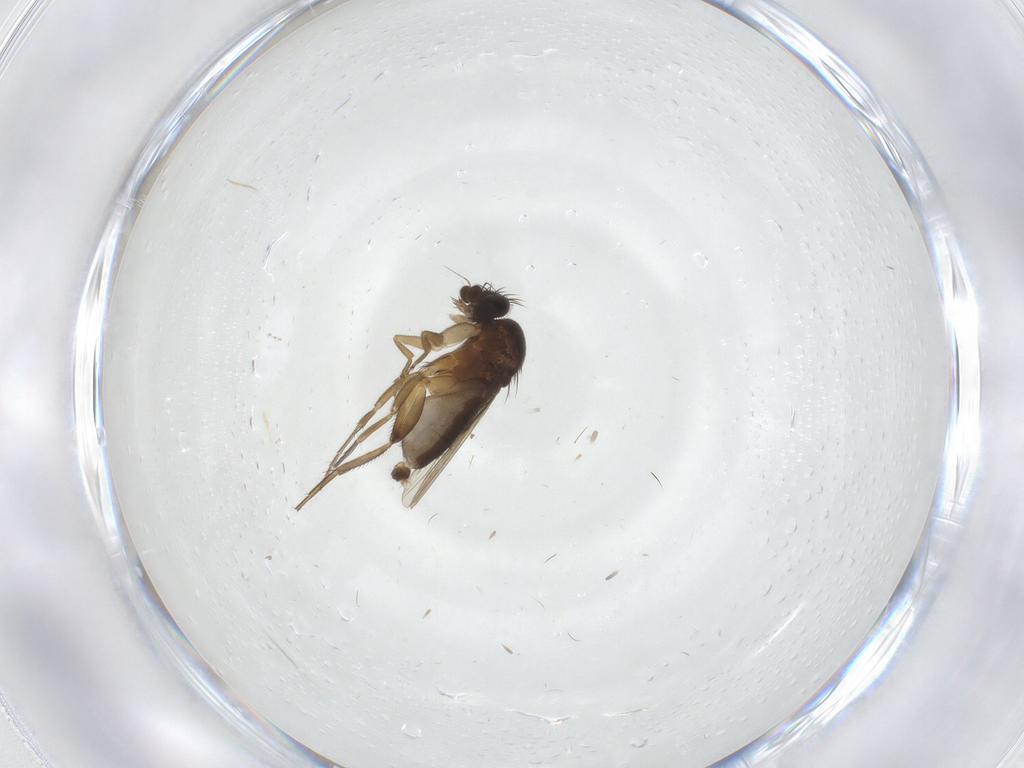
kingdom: Animalia
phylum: Arthropoda
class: Insecta
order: Diptera
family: Phoridae
